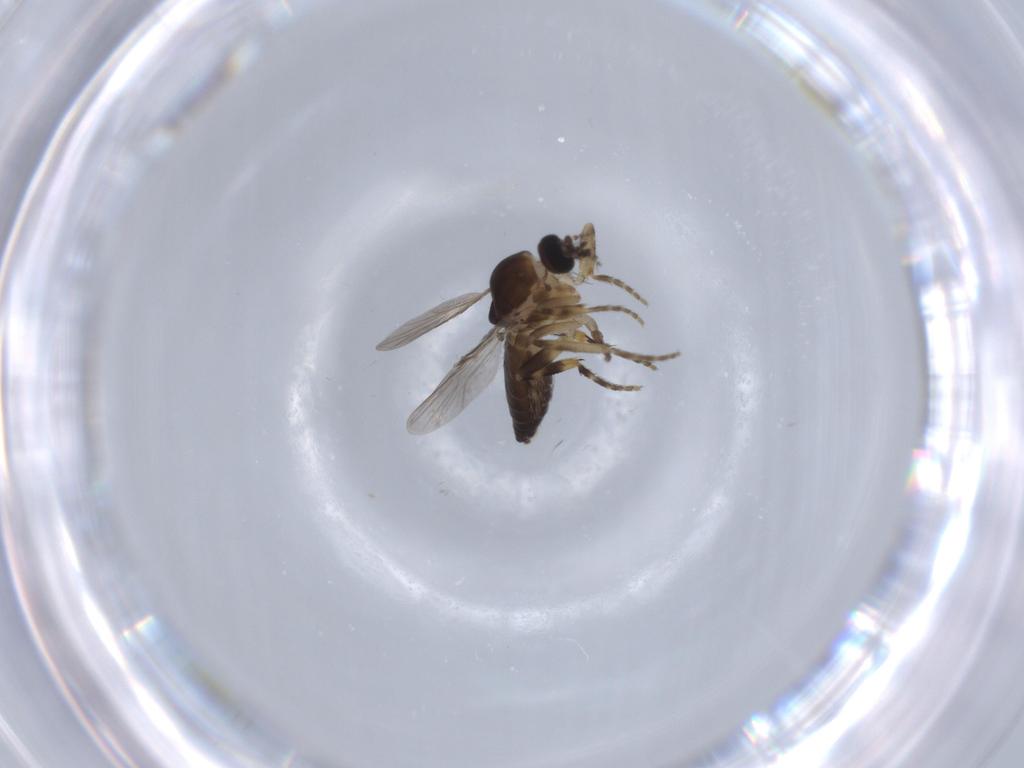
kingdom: Animalia
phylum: Arthropoda
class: Insecta
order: Diptera
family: Ceratopogonidae
